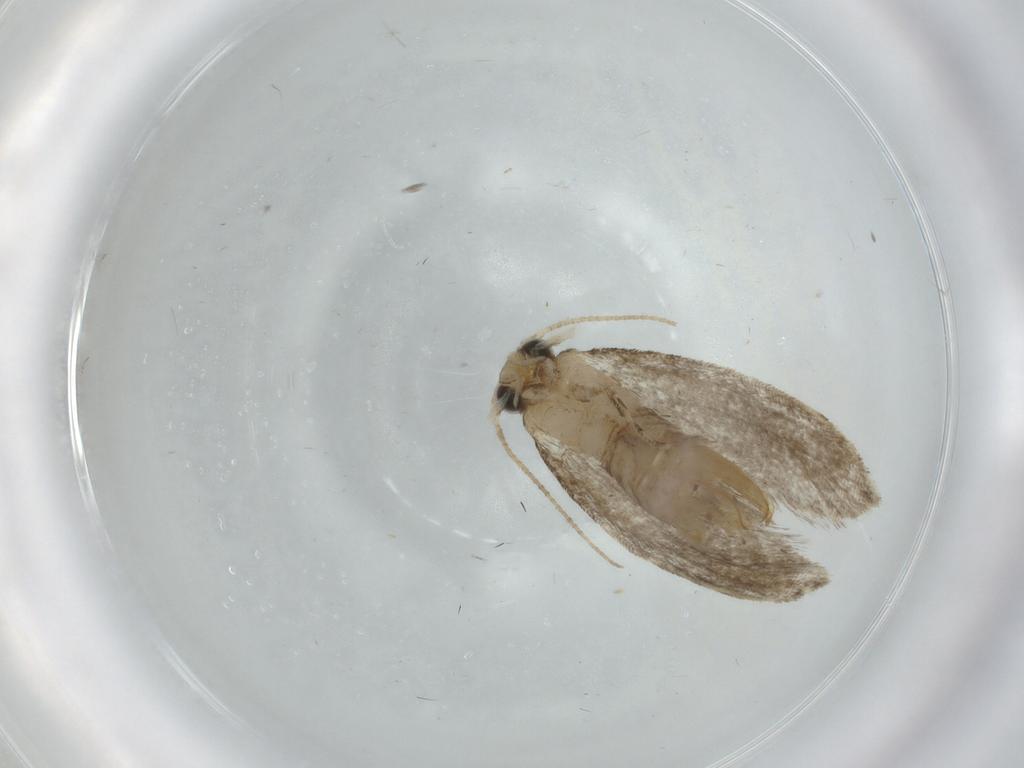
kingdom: Animalia
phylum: Arthropoda
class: Insecta
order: Lepidoptera
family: Tineidae
